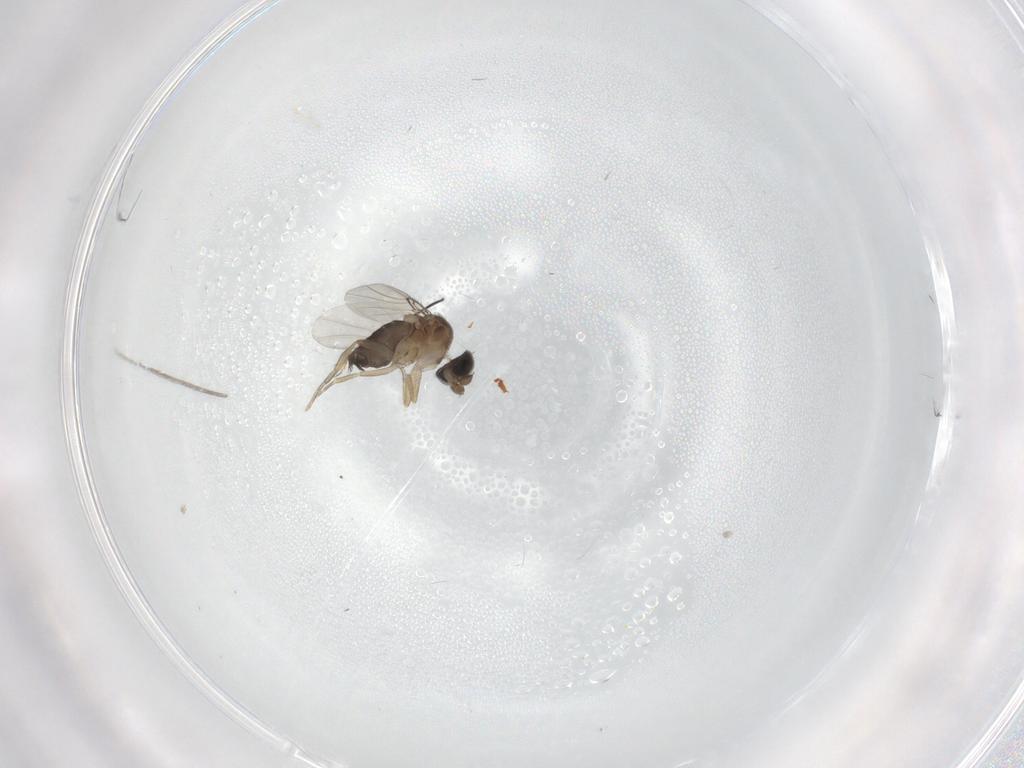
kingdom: Animalia
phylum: Arthropoda
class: Insecta
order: Diptera
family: Phoridae
